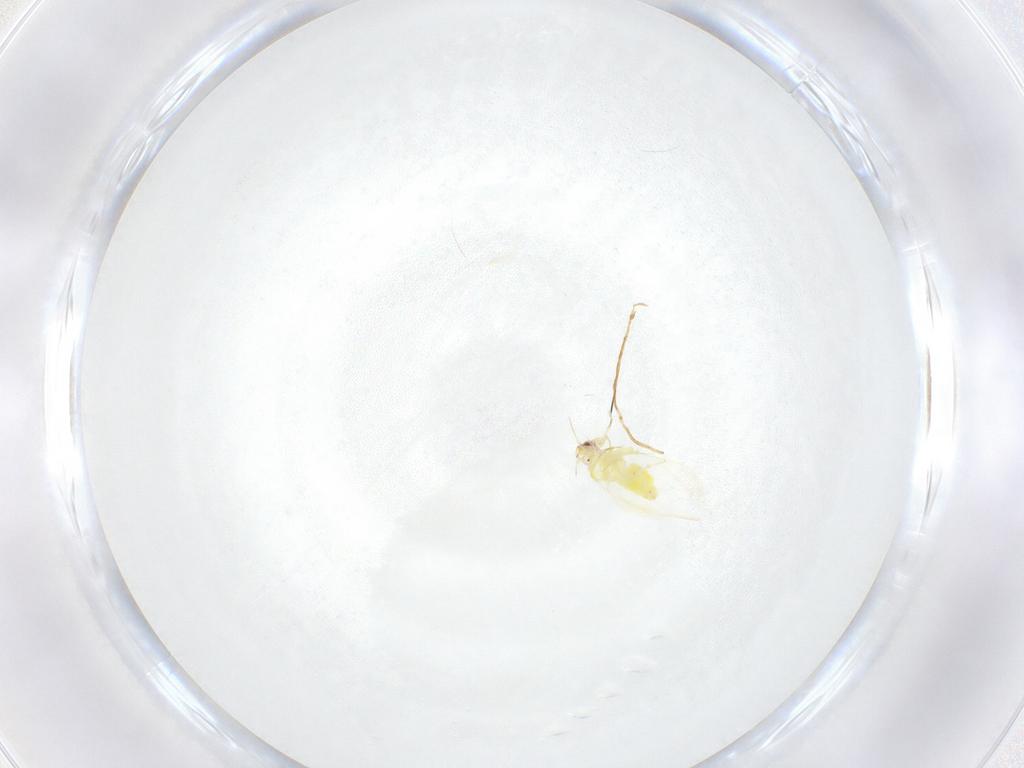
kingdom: Animalia
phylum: Arthropoda
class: Insecta
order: Hemiptera
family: Aleyrodidae
